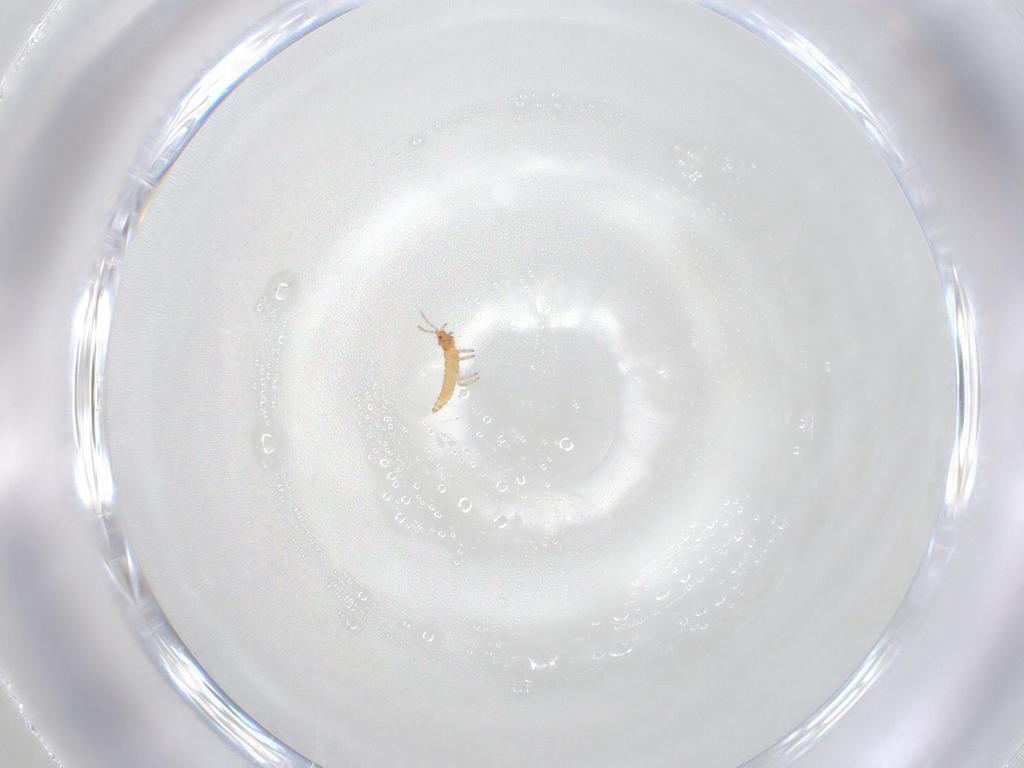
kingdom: Animalia
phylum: Arthropoda
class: Insecta
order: Thysanoptera
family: Aeolothripidae
